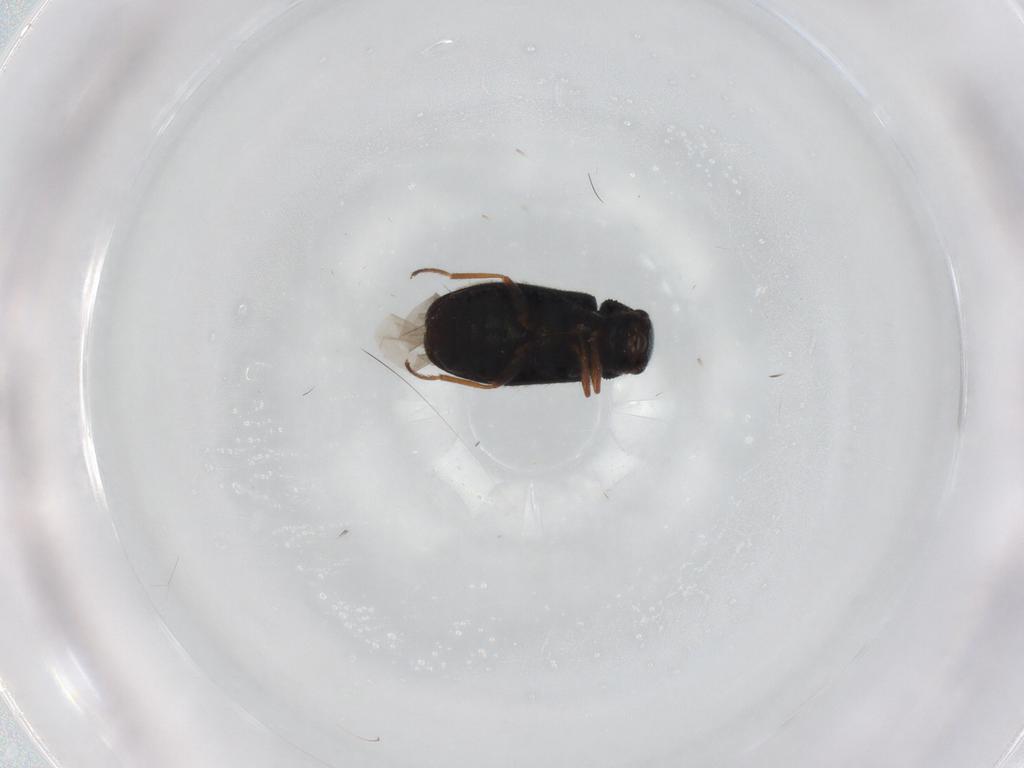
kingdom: Animalia
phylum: Arthropoda
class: Insecta
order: Coleoptera
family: Melyridae
